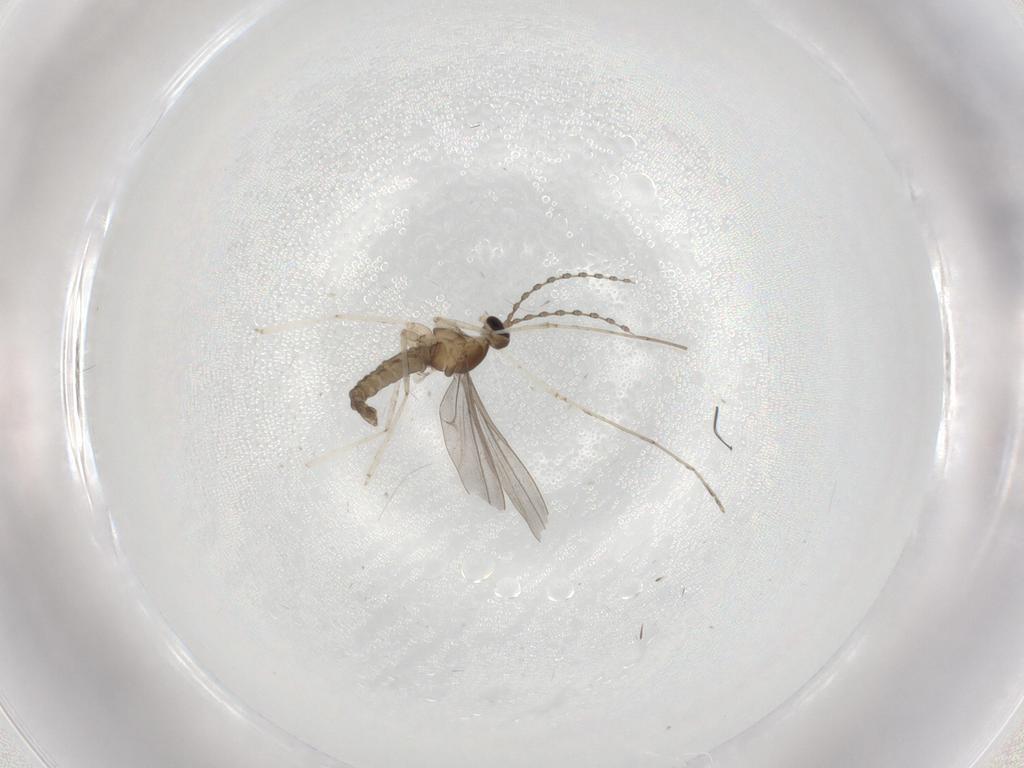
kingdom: Animalia
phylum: Arthropoda
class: Insecta
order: Diptera
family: Cecidomyiidae
